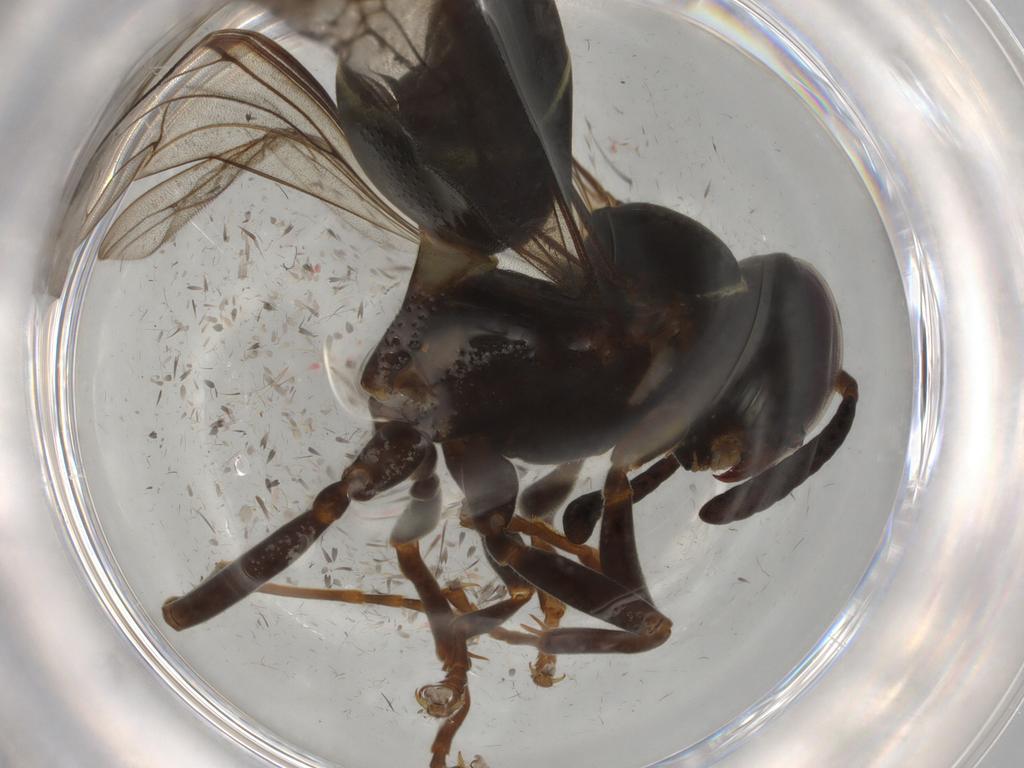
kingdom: Animalia
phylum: Arthropoda
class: Insecta
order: Hymenoptera
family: Vespidae
